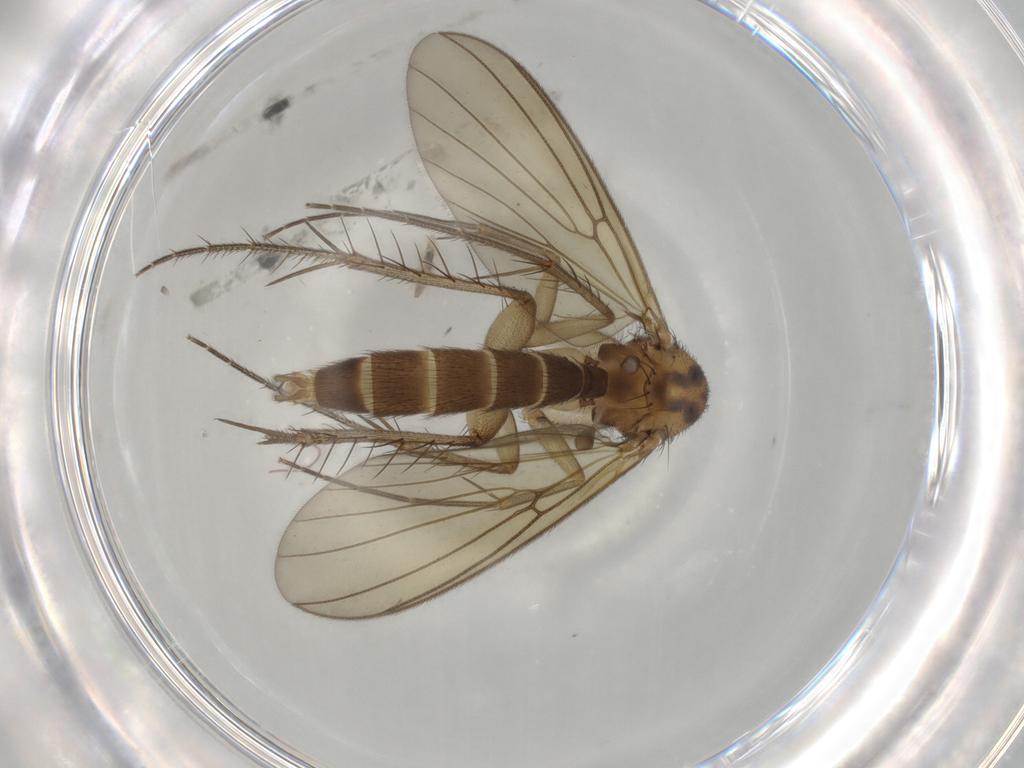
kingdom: Animalia
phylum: Arthropoda
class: Insecta
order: Diptera
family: Mycetophilidae
